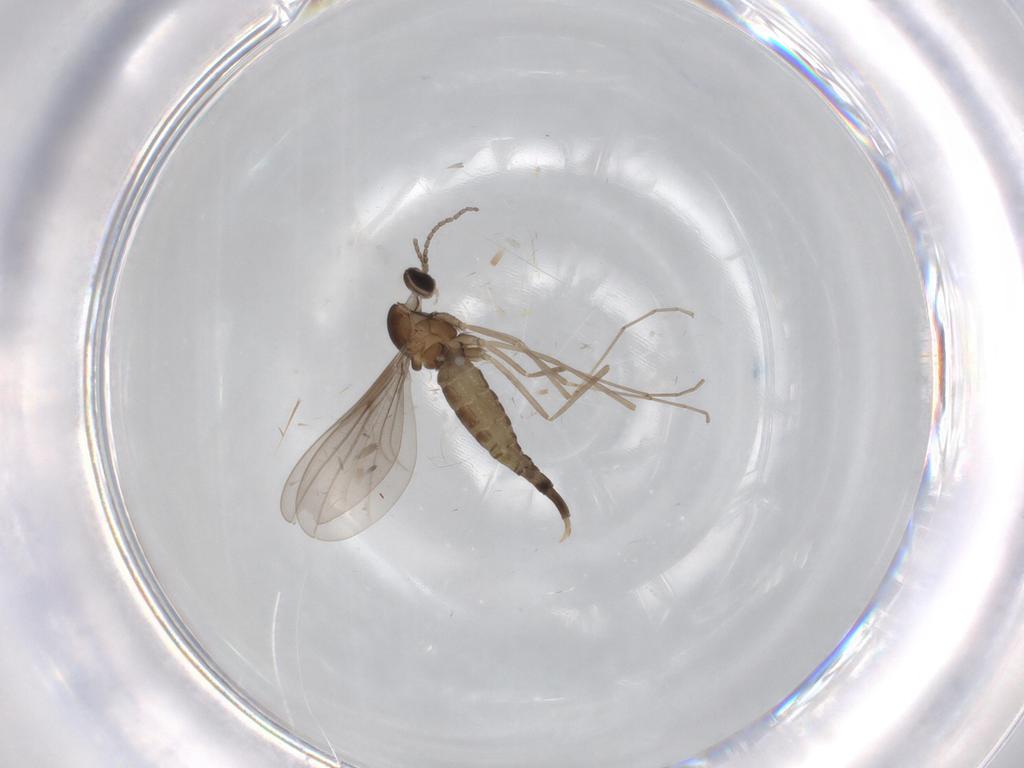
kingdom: Animalia
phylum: Arthropoda
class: Insecta
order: Diptera
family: Cecidomyiidae
